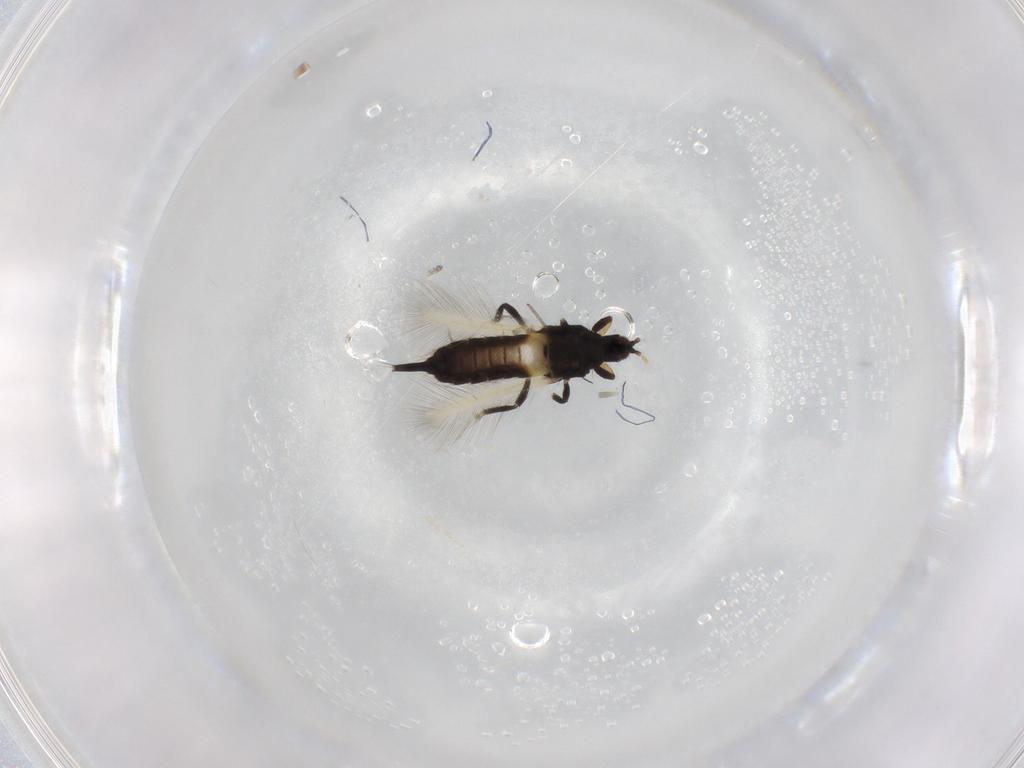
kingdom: Animalia
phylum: Arthropoda
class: Insecta
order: Thysanoptera
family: Phlaeothripidae
